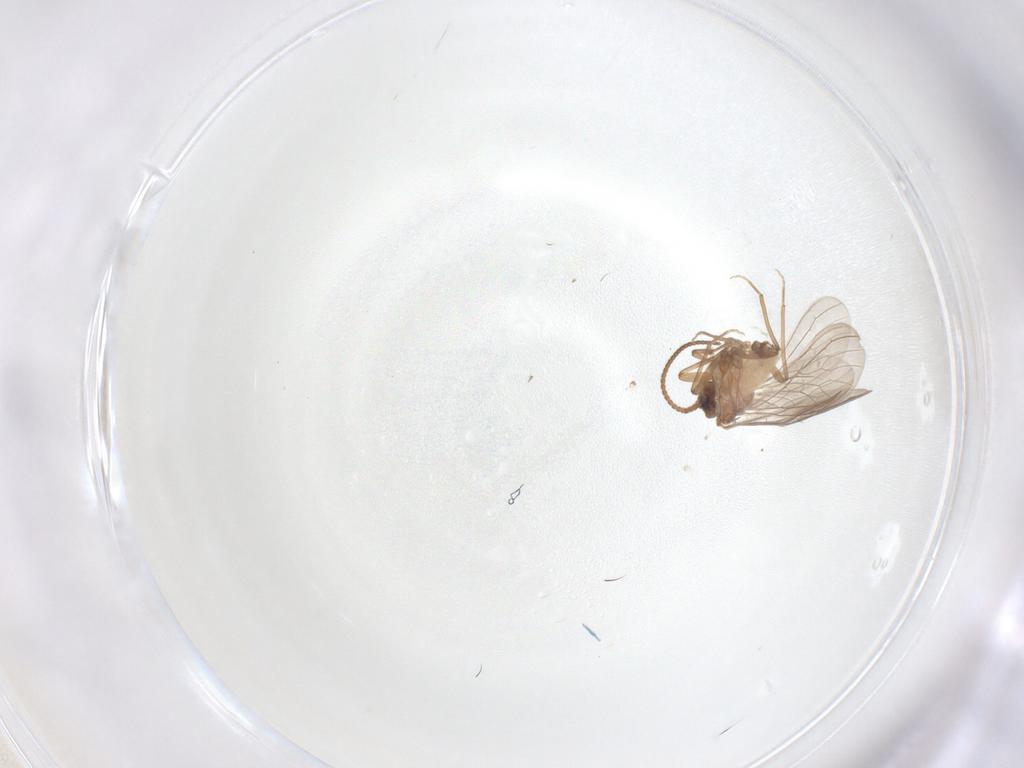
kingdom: Animalia
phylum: Arthropoda
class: Insecta
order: Neuroptera
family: Coniopterygidae
